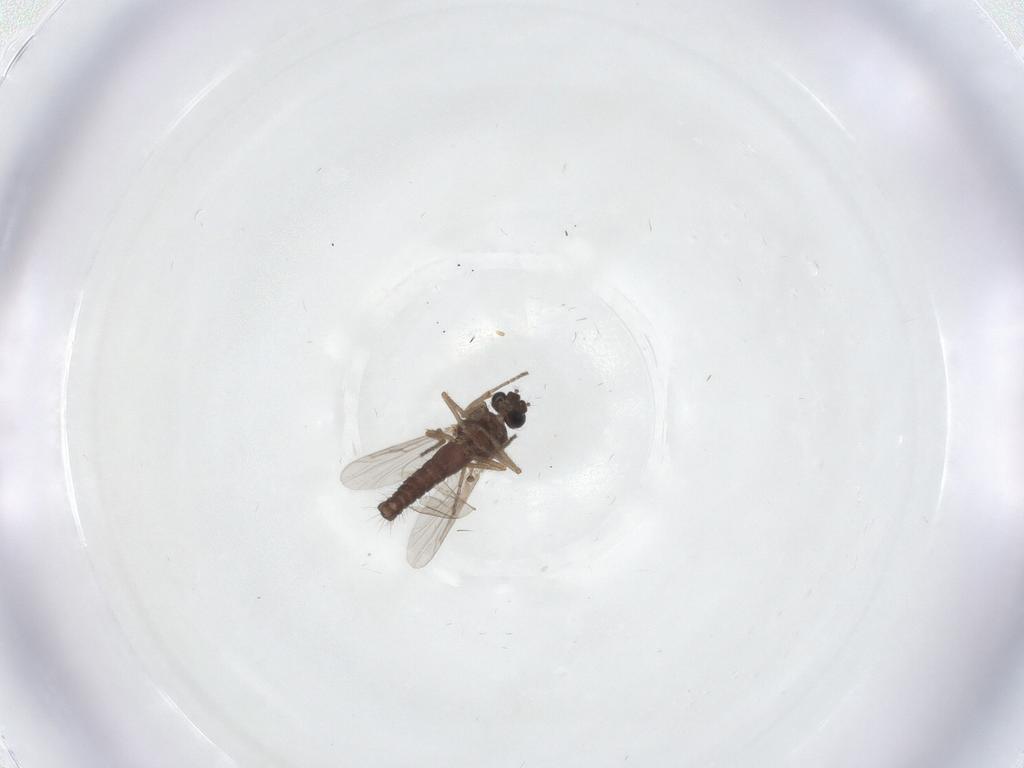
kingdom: Animalia
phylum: Arthropoda
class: Insecta
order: Diptera
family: Ceratopogonidae
